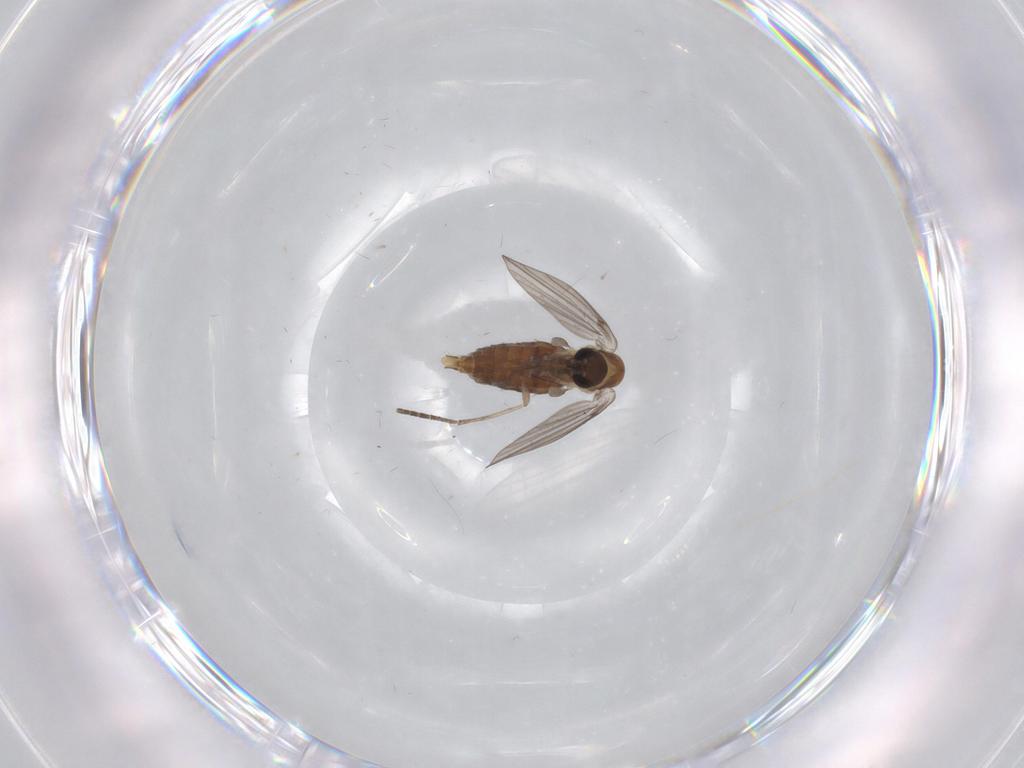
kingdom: Animalia
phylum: Arthropoda
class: Insecta
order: Diptera
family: Psychodidae
